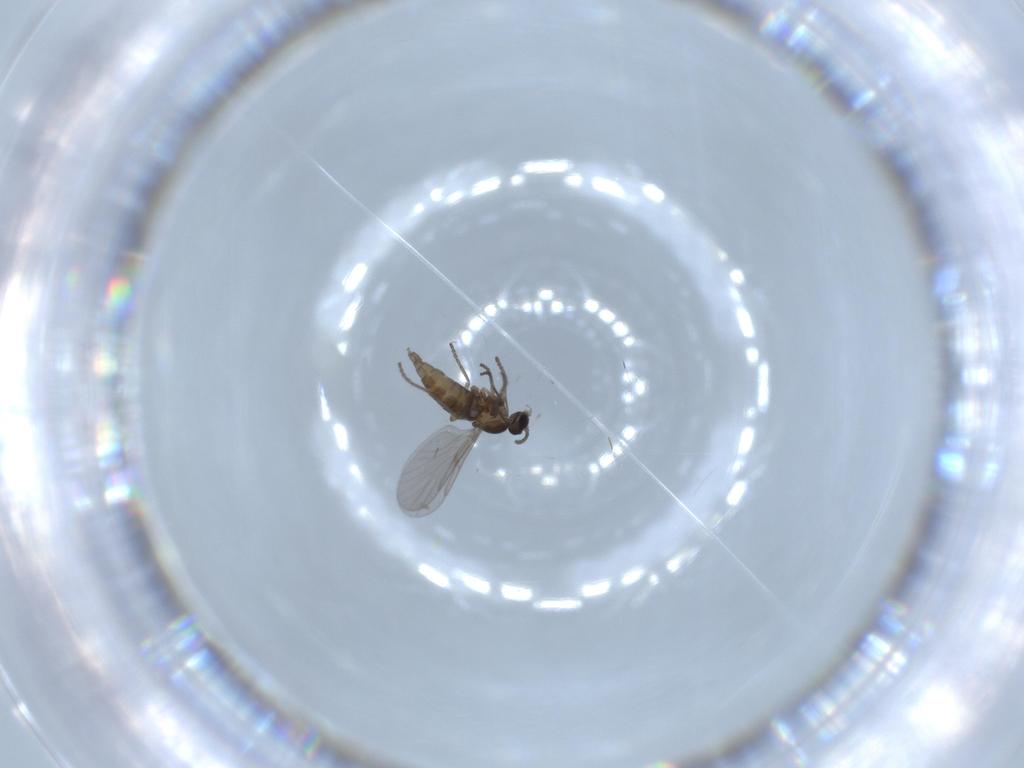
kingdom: Animalia
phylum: Arthropoda
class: Insecta
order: Diptera
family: Cecidomyiidae
